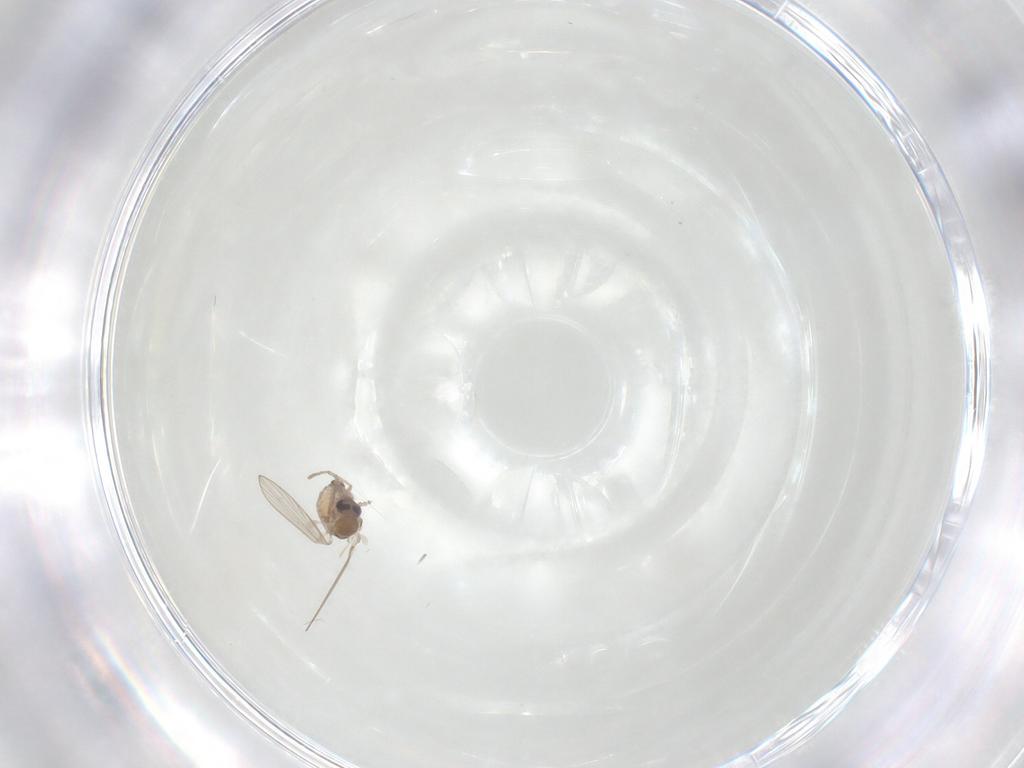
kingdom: Animalia
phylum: Arthropoda
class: Insecta
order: Diptera
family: Psychodidae
